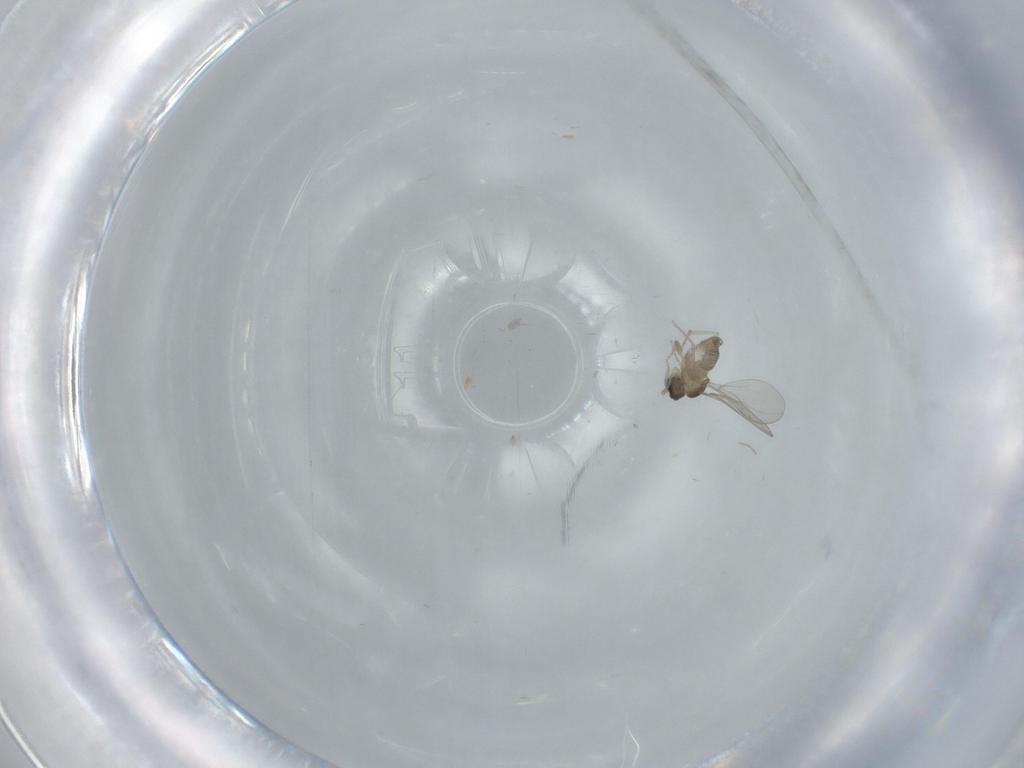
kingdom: Animalia
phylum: Arthropoda
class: Insecta
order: Diptera
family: Cecidomyiidae
